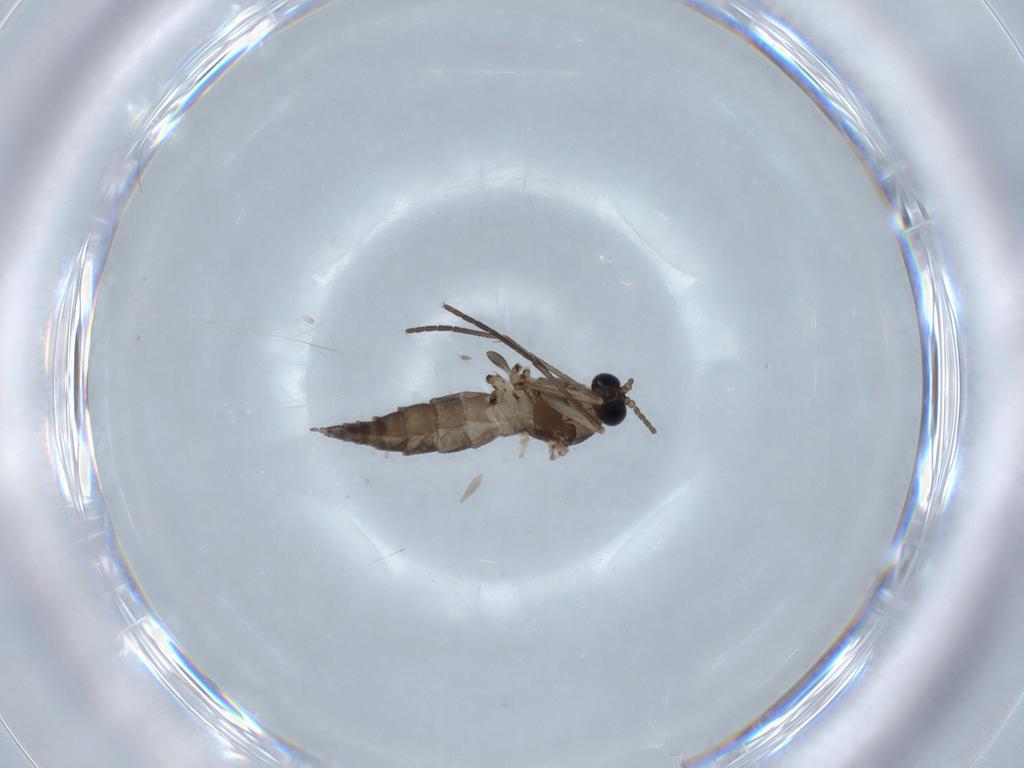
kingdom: Animalia
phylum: Arthropoda
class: Insecta
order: Diptera
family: Sciaridae
